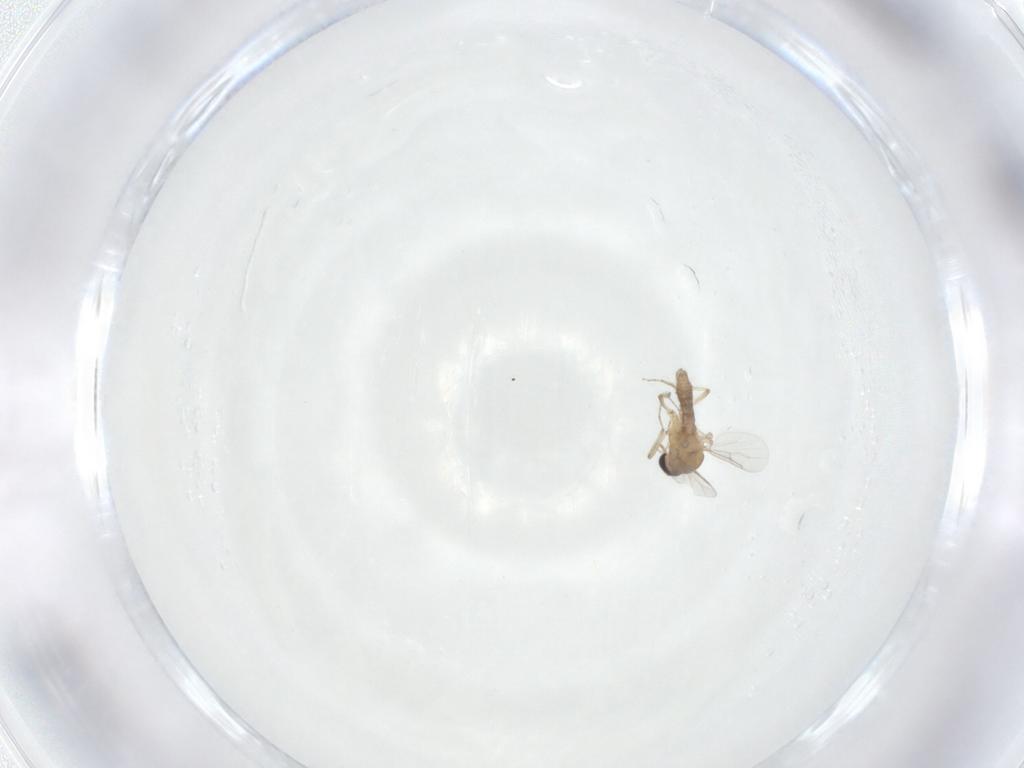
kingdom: Animalia
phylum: Arthropoda
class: Insecta
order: Diptera
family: Ceratopogonidae
